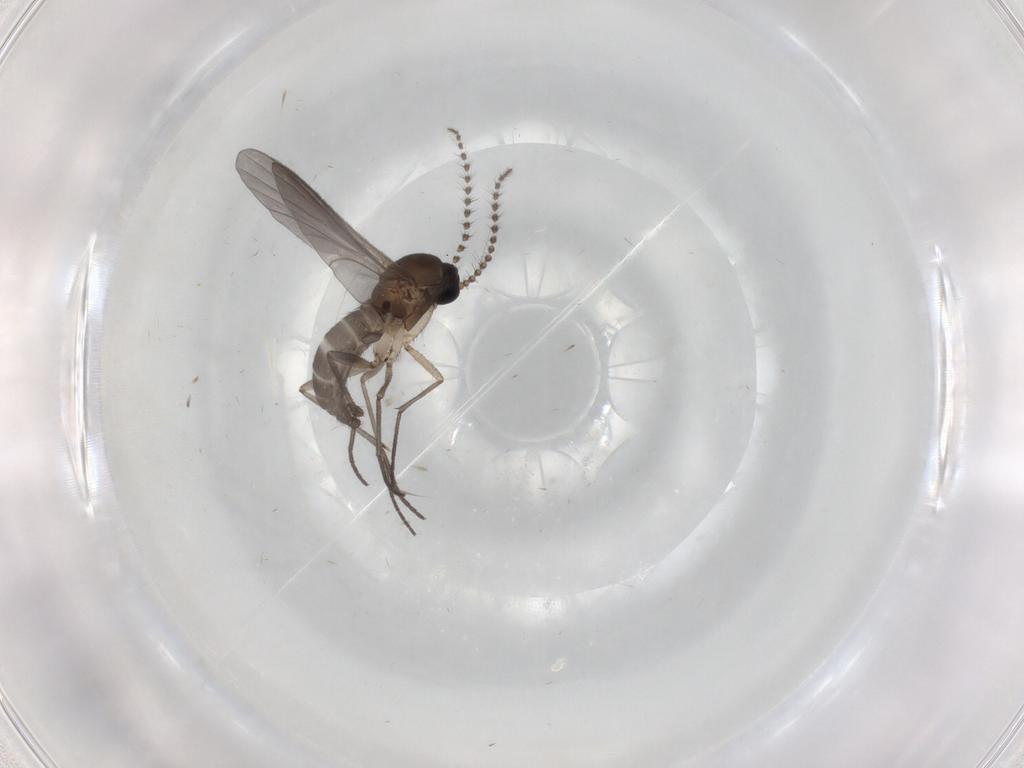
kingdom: Animalia
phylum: Arthropoda
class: Insecta
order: Diptera
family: Sciaridae
